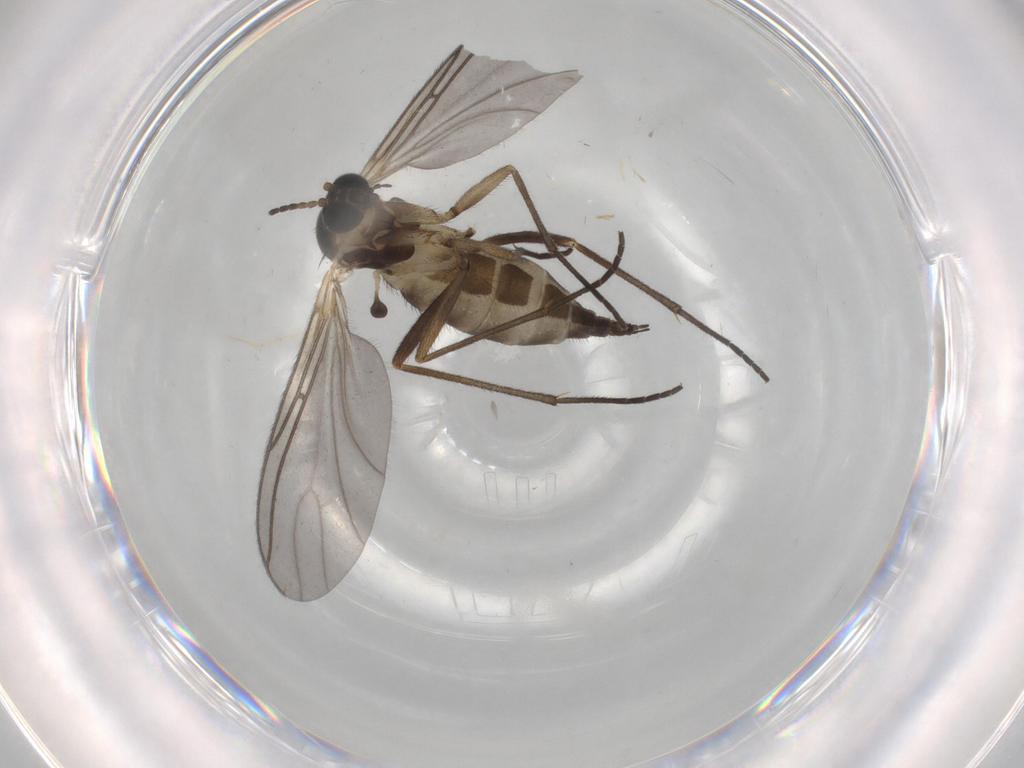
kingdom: Animalia
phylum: Arthropoda
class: Insecta
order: Diptera
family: Sciaridae
